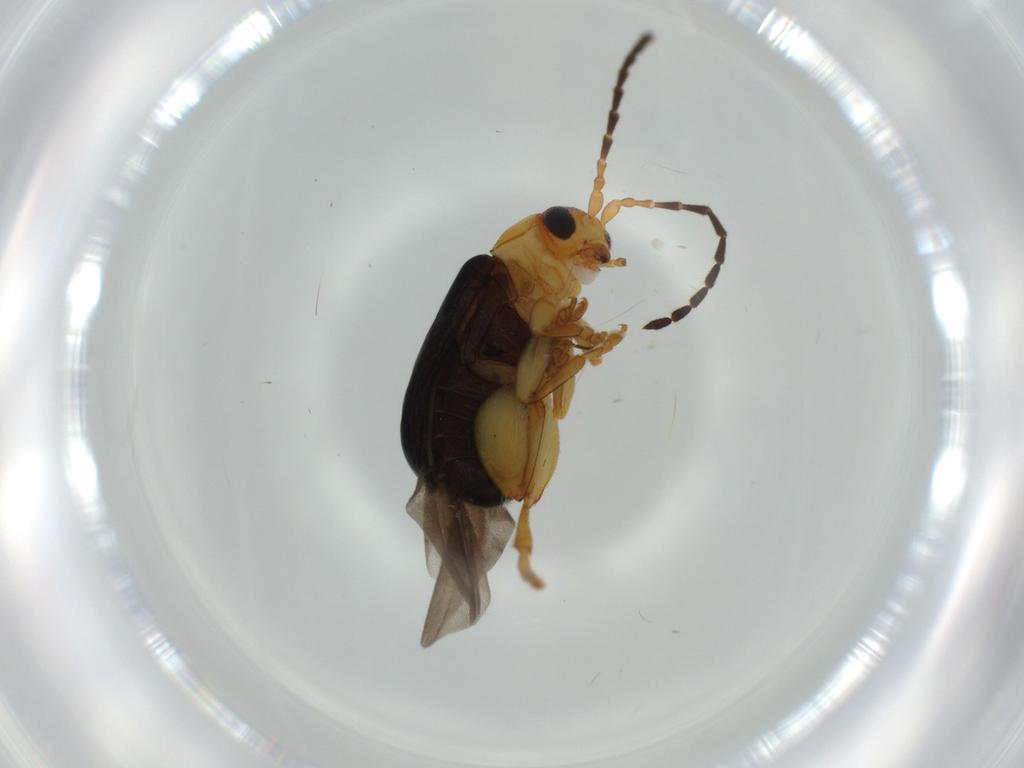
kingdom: Animalia
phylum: Arthropoda
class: Insecta
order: Coleoptera
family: Chrysomelidae
